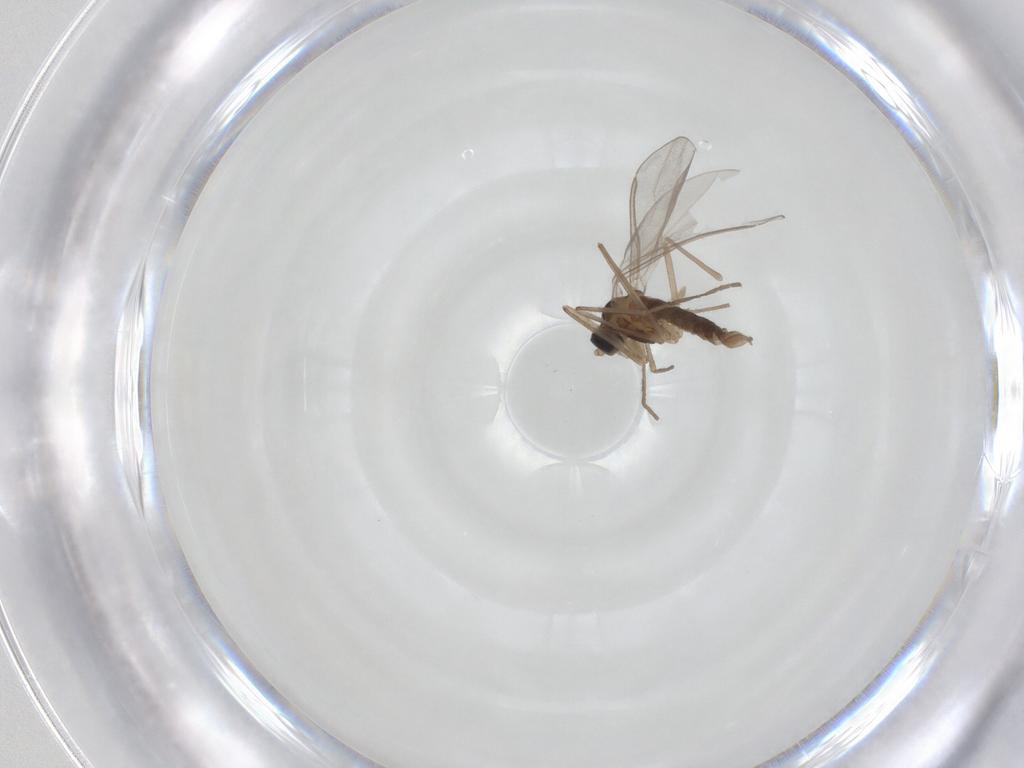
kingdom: Animalia
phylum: Arthropoda
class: Insecta
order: Diptera
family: Cecidomyiidae
